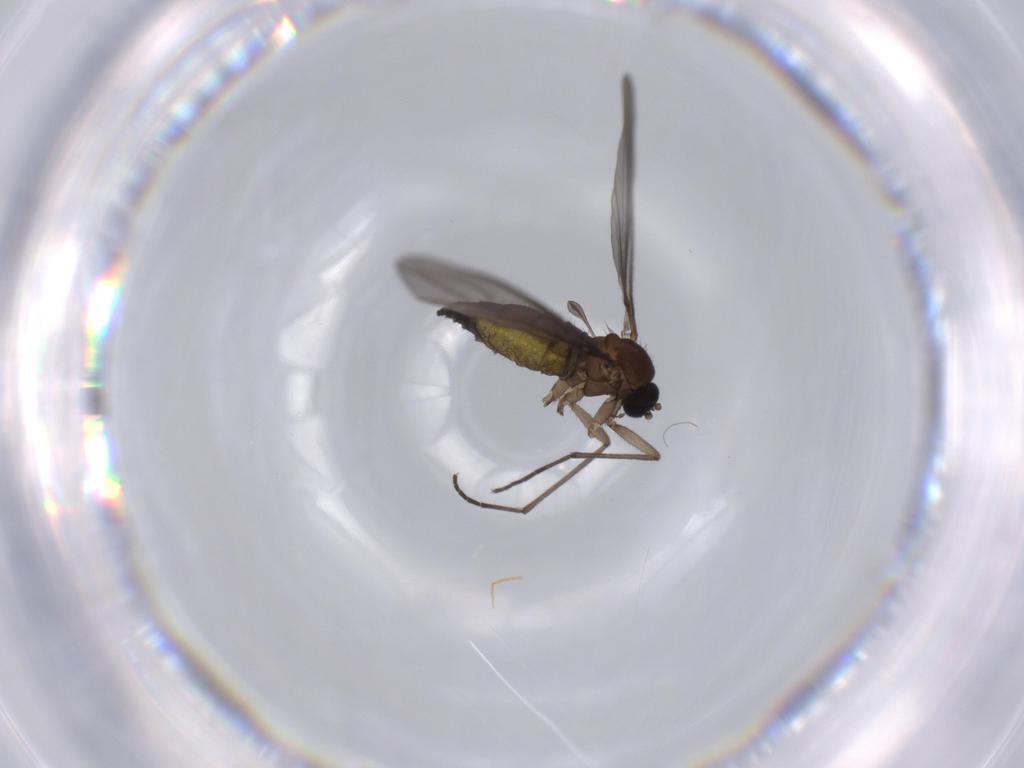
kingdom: Animalia
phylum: Arthropoda
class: Insecta
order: Diptera
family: Sciaridae
